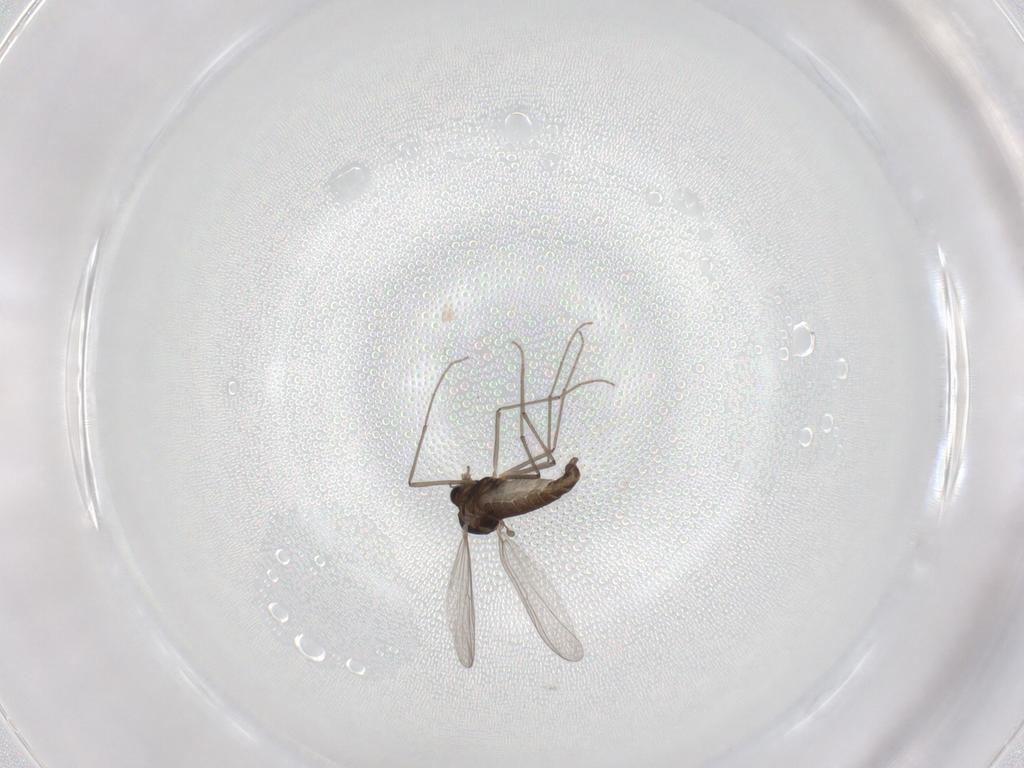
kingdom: Animalia
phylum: Arthropoda
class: Insecta
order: Diptera
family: Chironomidae
